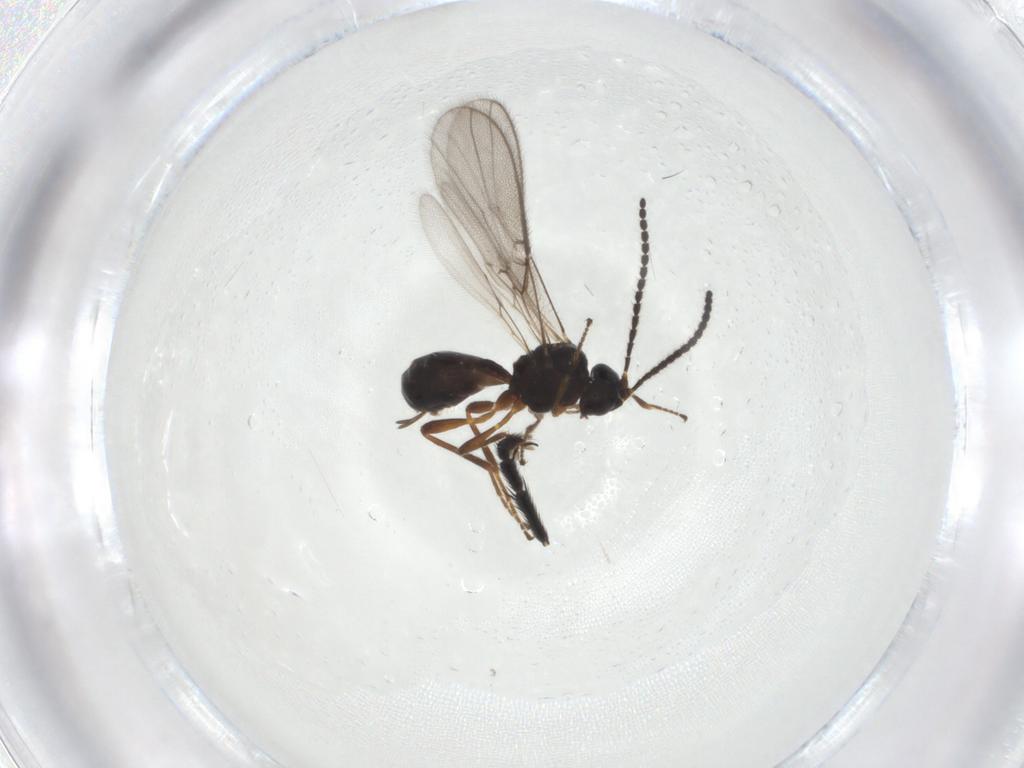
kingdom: Animalia
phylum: Arthropoda
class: Insecta
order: Hymenoptera
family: Braconidae
